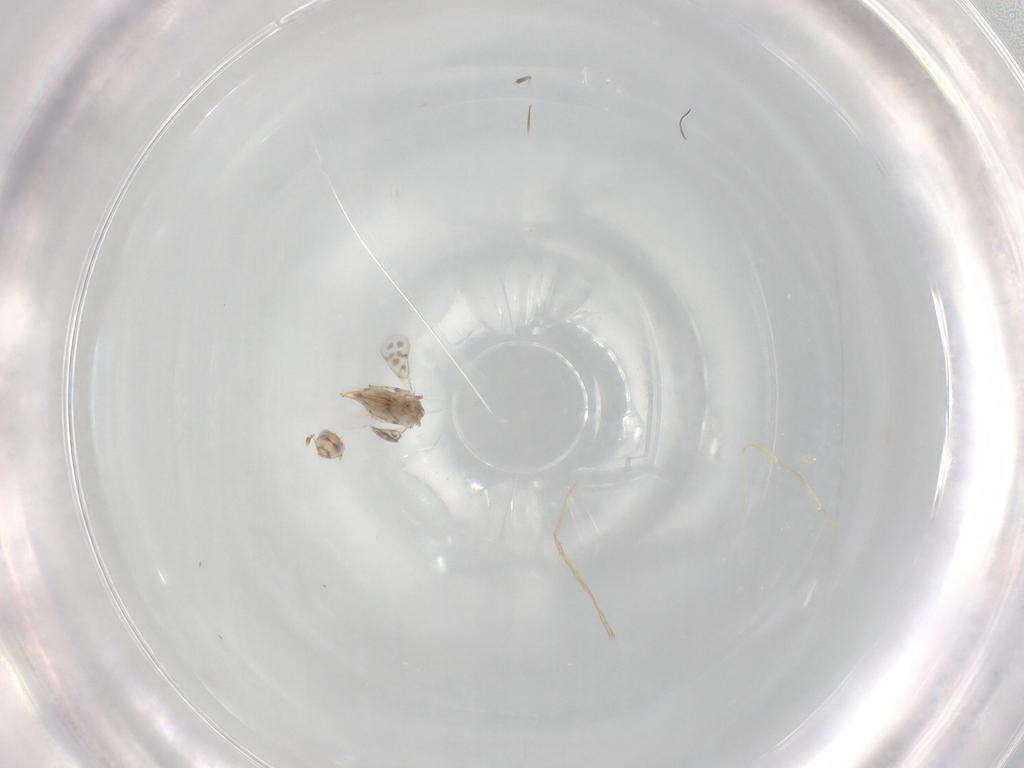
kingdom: Animalia
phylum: Arthropoda
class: Insecta
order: Hymenoptera
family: Aphelinidae
